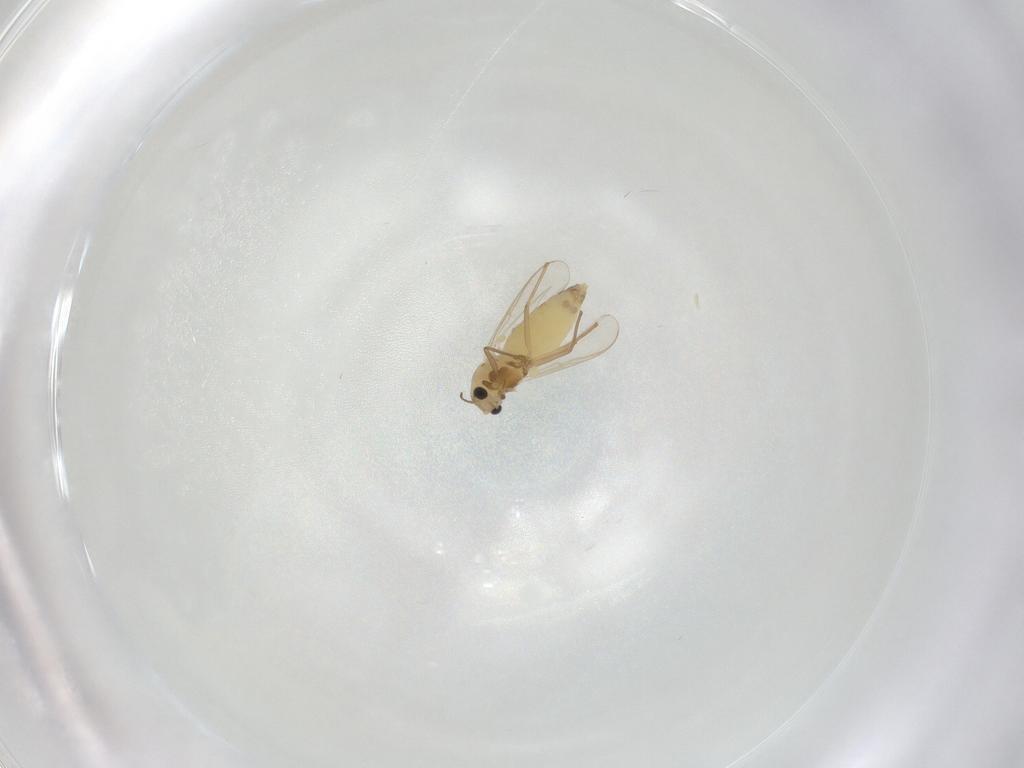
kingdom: Animalia
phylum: Arthropoda
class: Insecta
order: Diptera
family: Chironomidae
